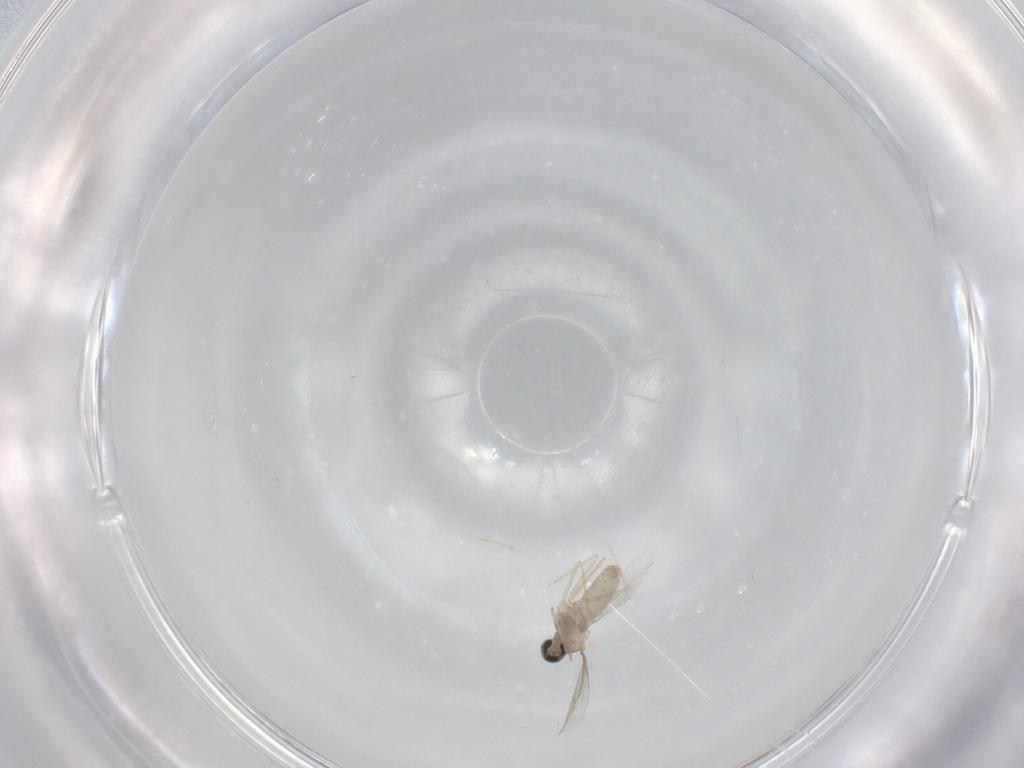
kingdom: Animalia
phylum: Arthropoda
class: Insecta
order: Diptera
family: Cecidomyiidae
